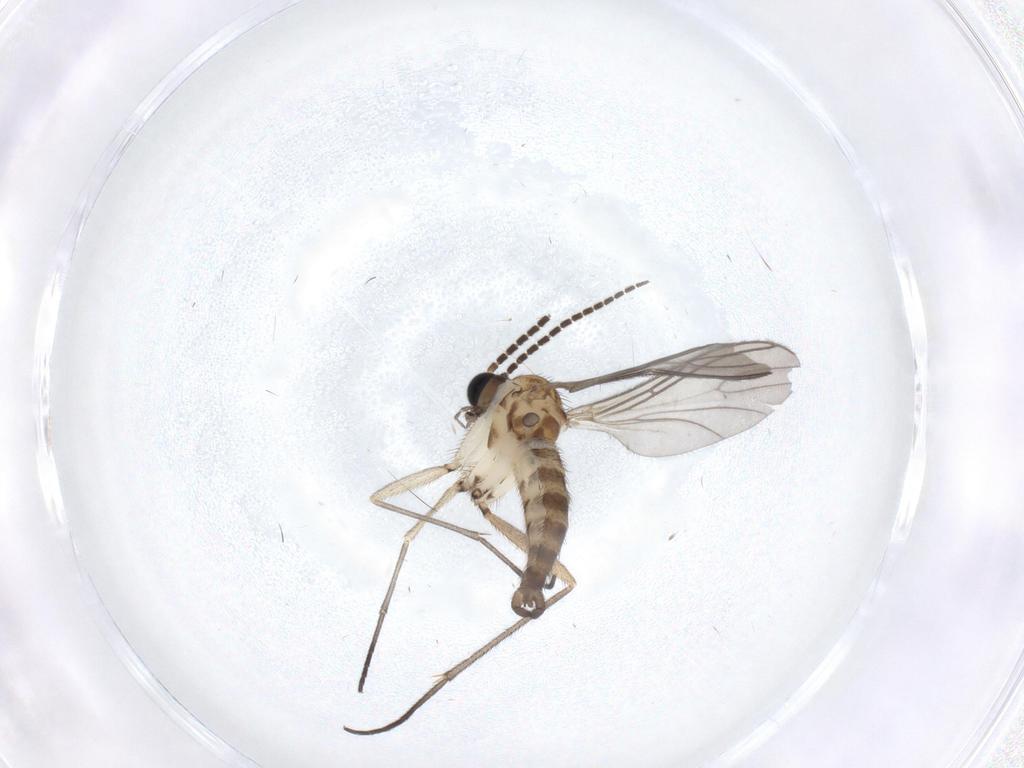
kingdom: Animalia
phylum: Arthropoda
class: Insecta
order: Diptera
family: Sciaridae
